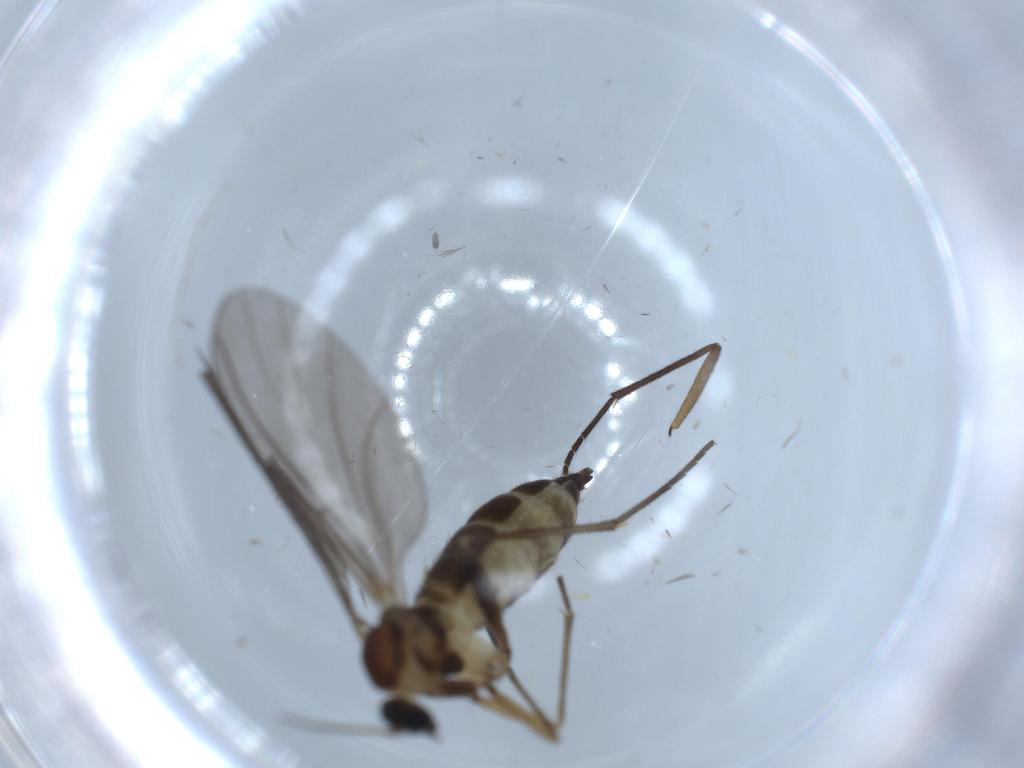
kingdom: Animalia
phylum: Arthropoda
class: Insecta
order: Diptera
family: Sciaridae
